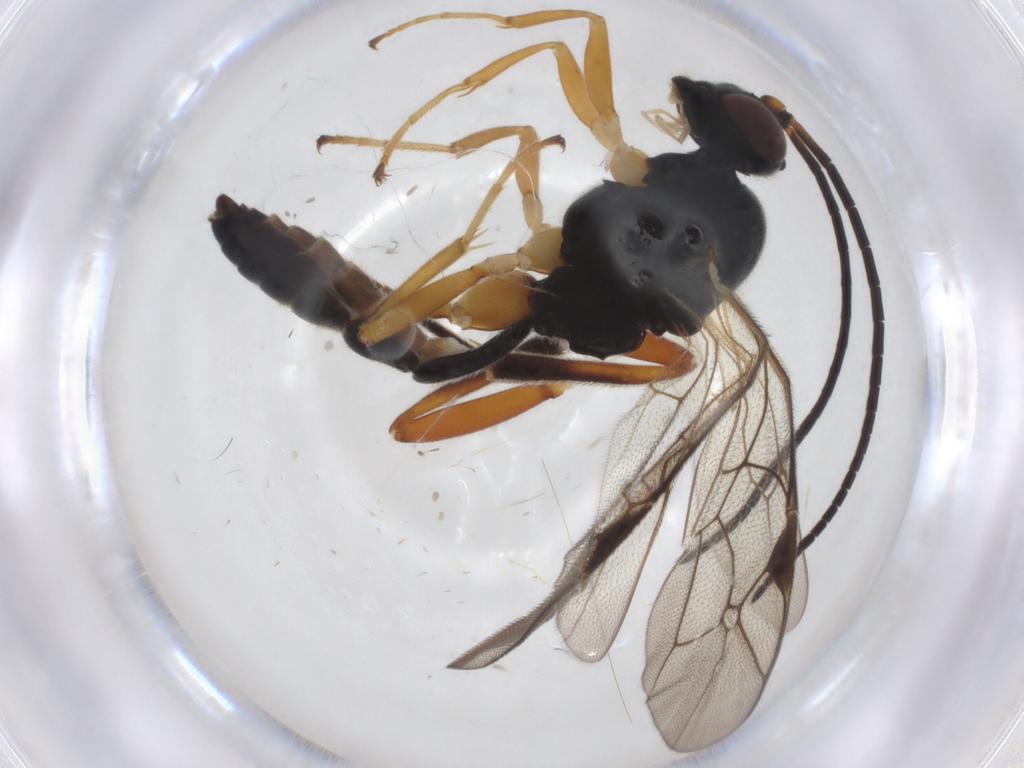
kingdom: Animalia
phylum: Arthropoda
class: Insecta
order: Hymenoptera
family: Ichneumonidae
